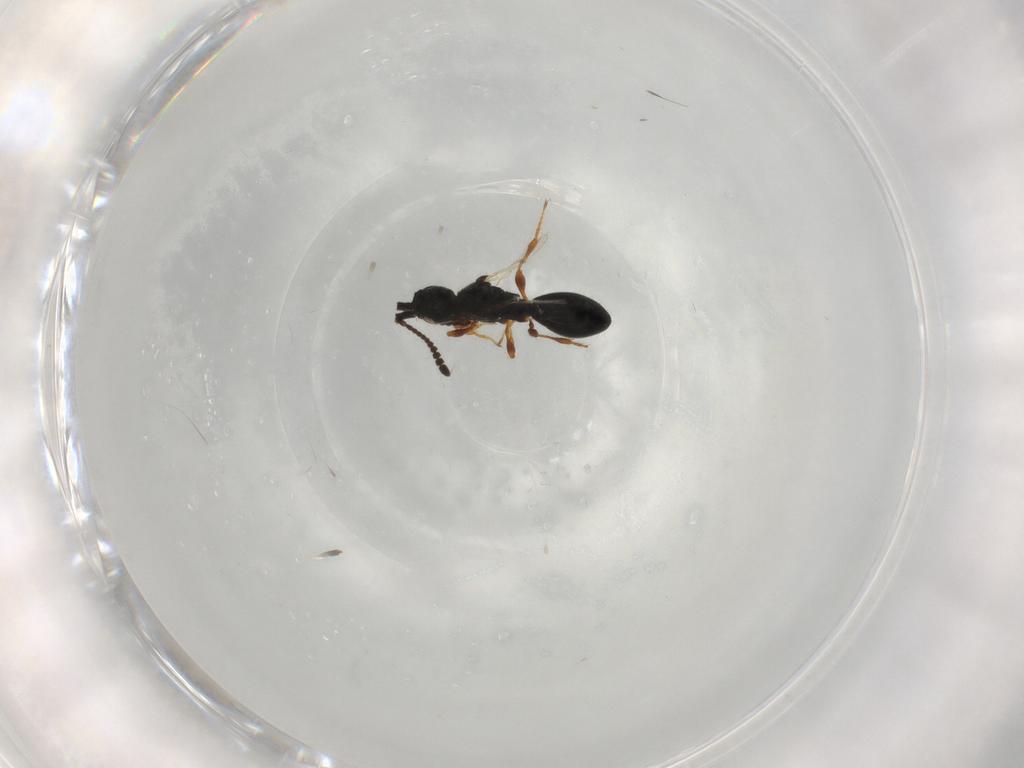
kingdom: Animalia
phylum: Arthropoda
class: Insecta
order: Hymenoptera
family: Diapriidae
